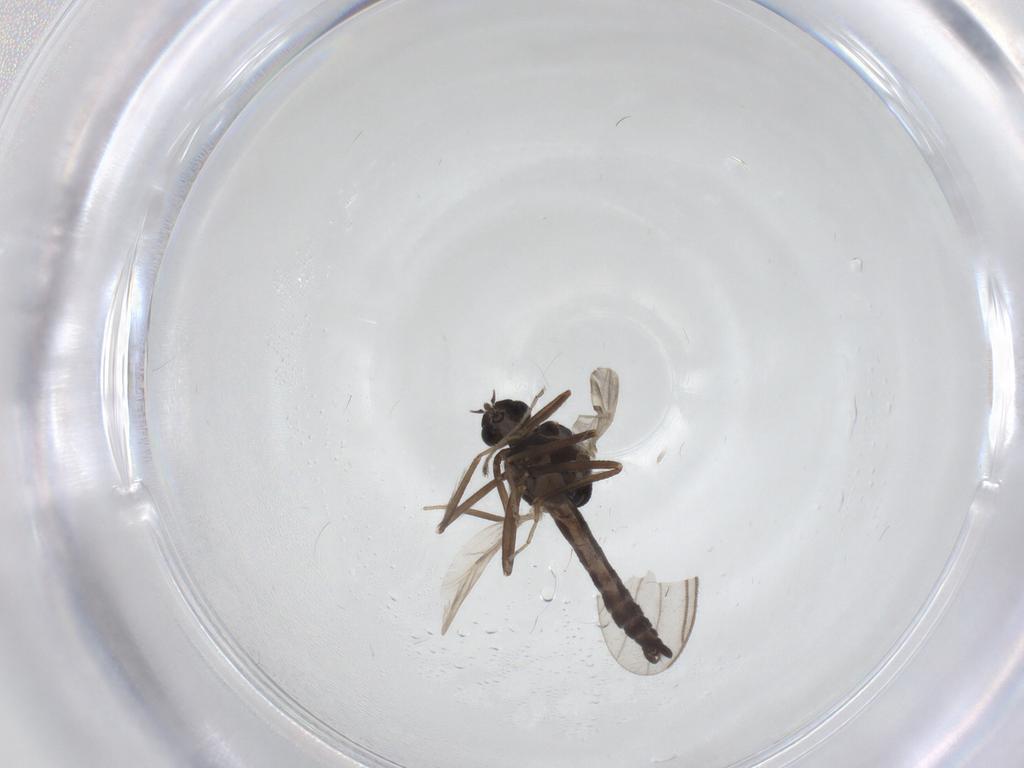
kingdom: Animalia
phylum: Arthropoda
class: Insecta
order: Diptera
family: Ceratopogonidae
